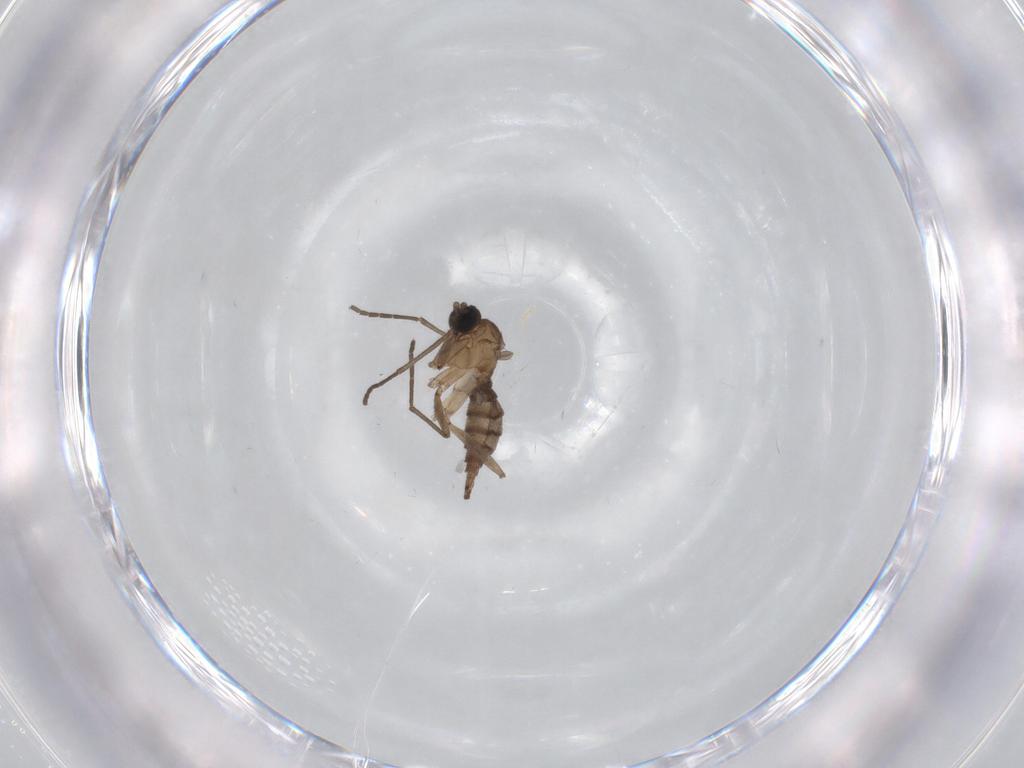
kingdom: Animalia
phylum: Arthropoda
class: Insecta
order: Diptera
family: Sciaridae
